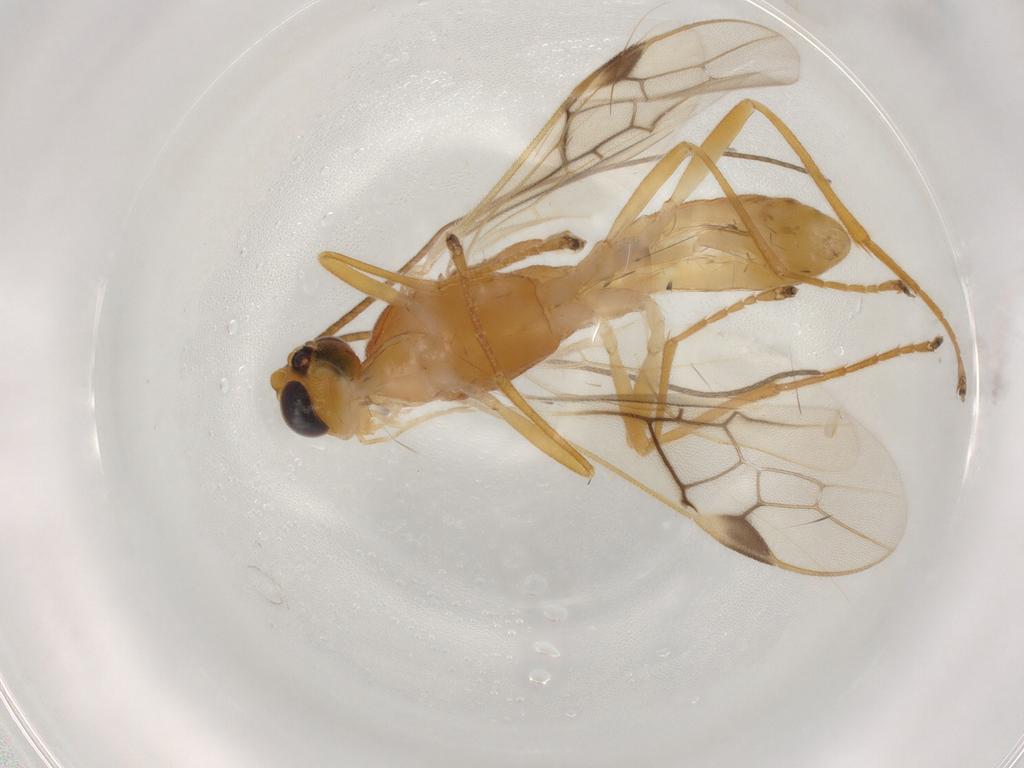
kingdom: Animalia
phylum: Arthropoda
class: Insecta
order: Hymenoptera
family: Braconidae
